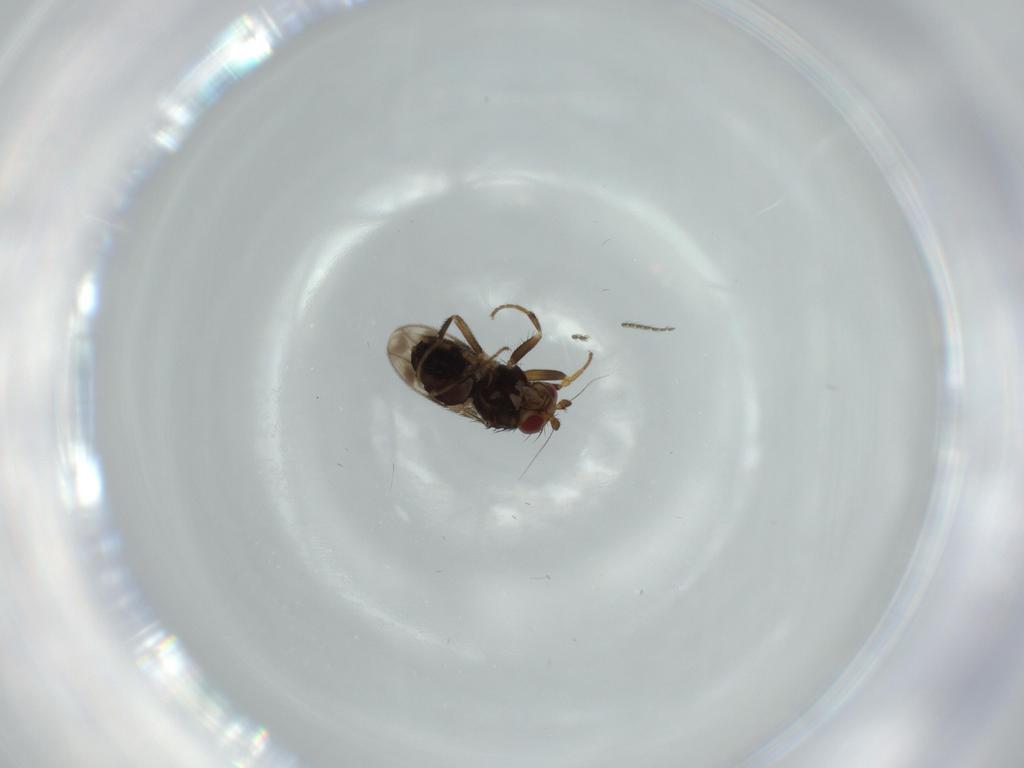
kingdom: Animalia
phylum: Arthropoda
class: Insecta
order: Diptera
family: Sphaeroceridae
